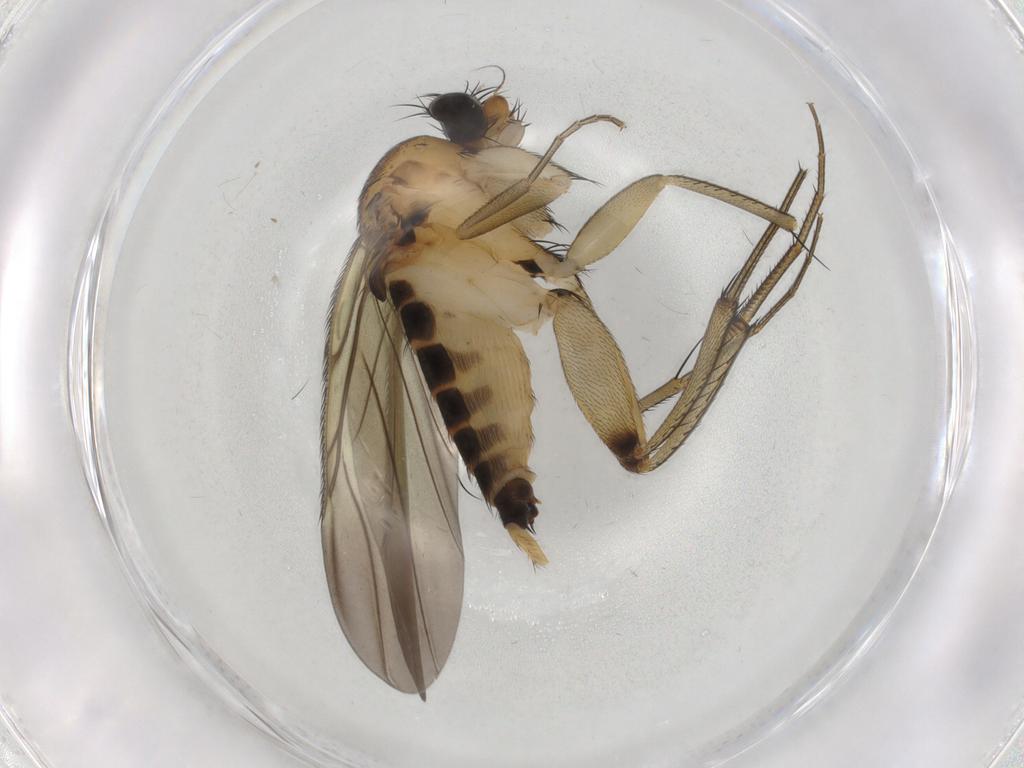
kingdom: Animalia
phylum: Arthropoda
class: Insecta
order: Diptera
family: Phoridae
